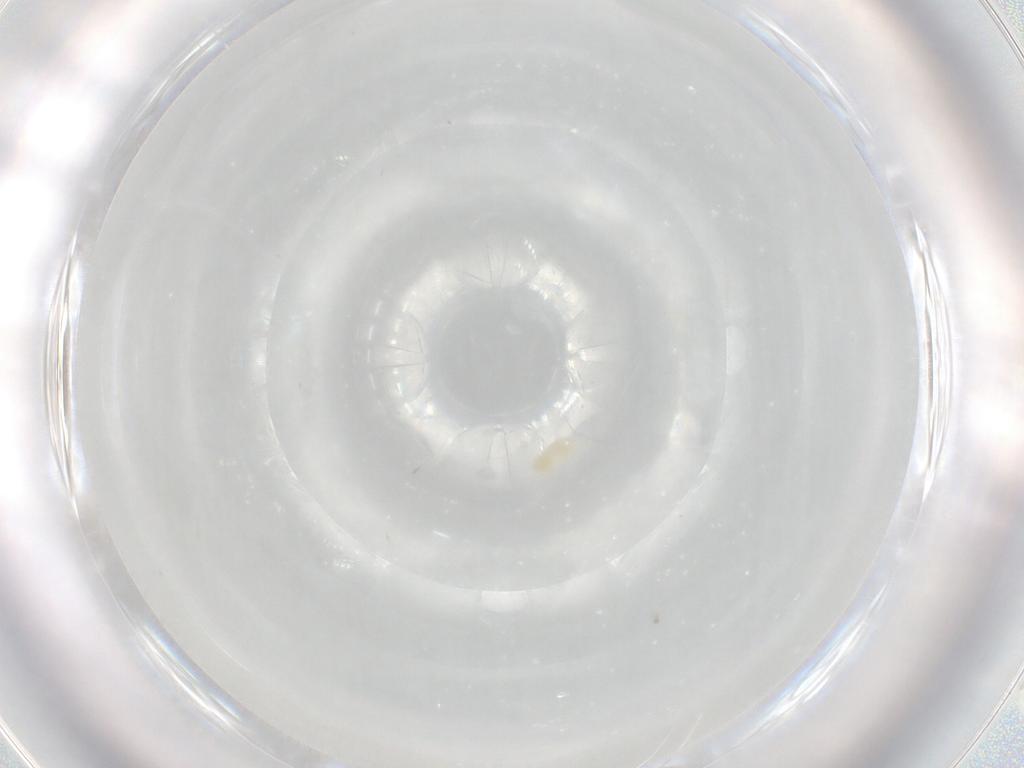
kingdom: Animalia
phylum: Arthropoda
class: Arachnida
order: Trombidiformes
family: Eupodidae
